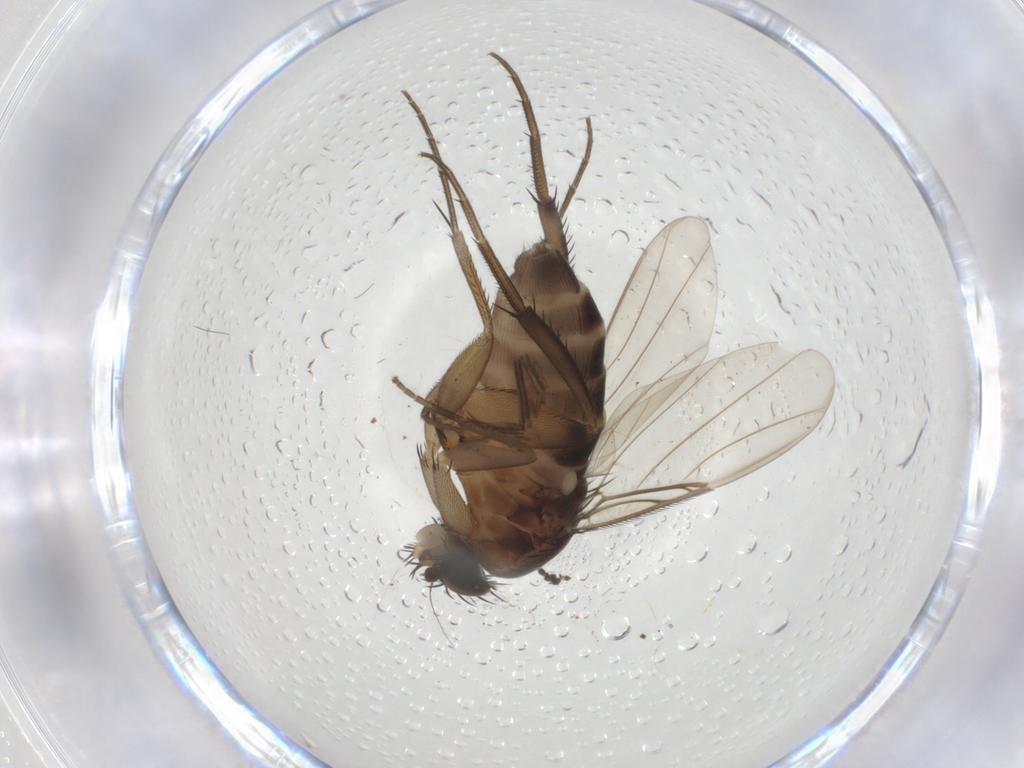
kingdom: Animalia
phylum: Arthropoda
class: Insecta
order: Diptera
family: Phoridae
